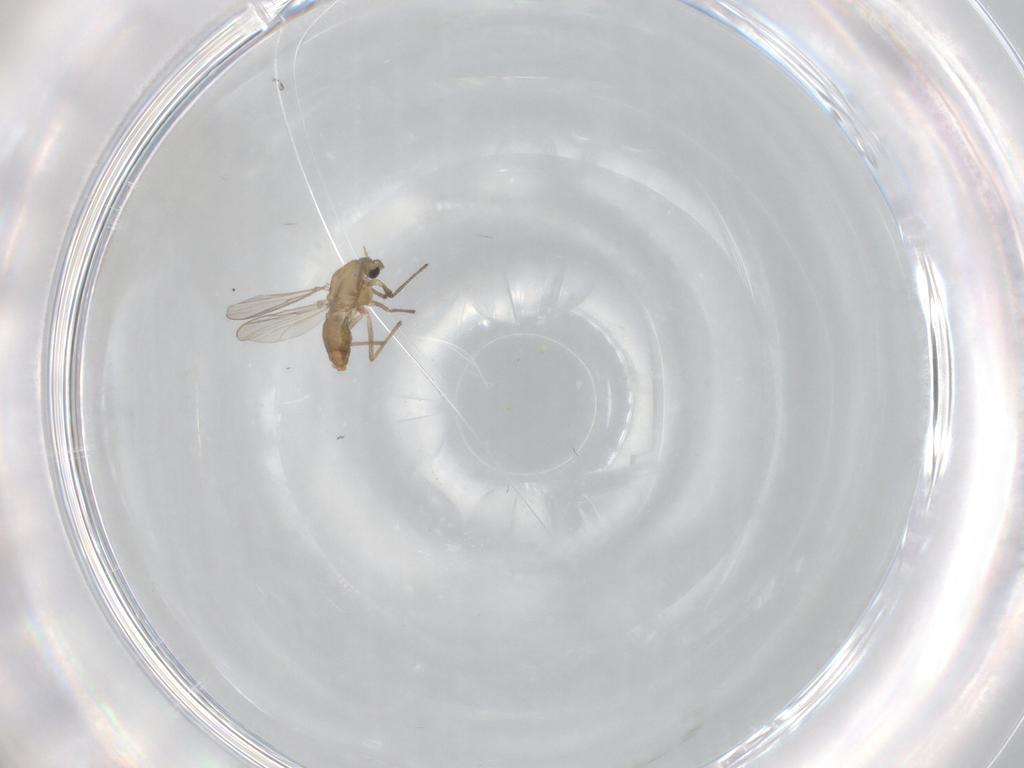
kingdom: Animalia
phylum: Arthropoda
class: Insecta
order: Diptera
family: Chironomidae
